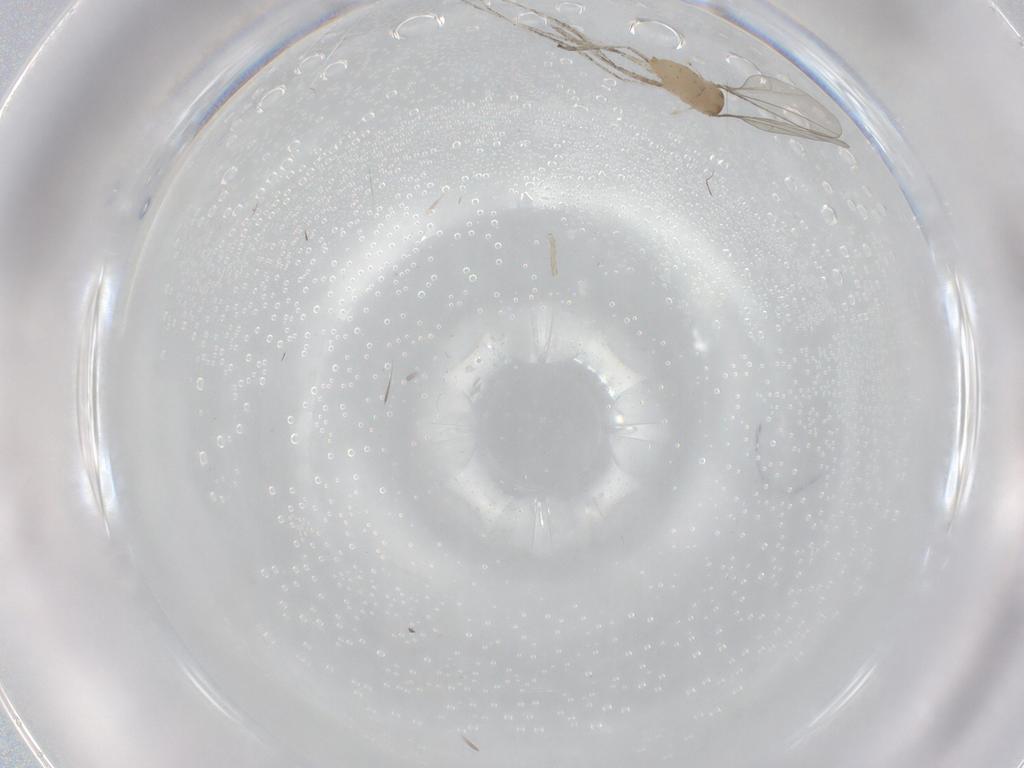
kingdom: Animalia
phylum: Arthropoda
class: Insecta
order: Diptera
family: Cecidomyiidae
